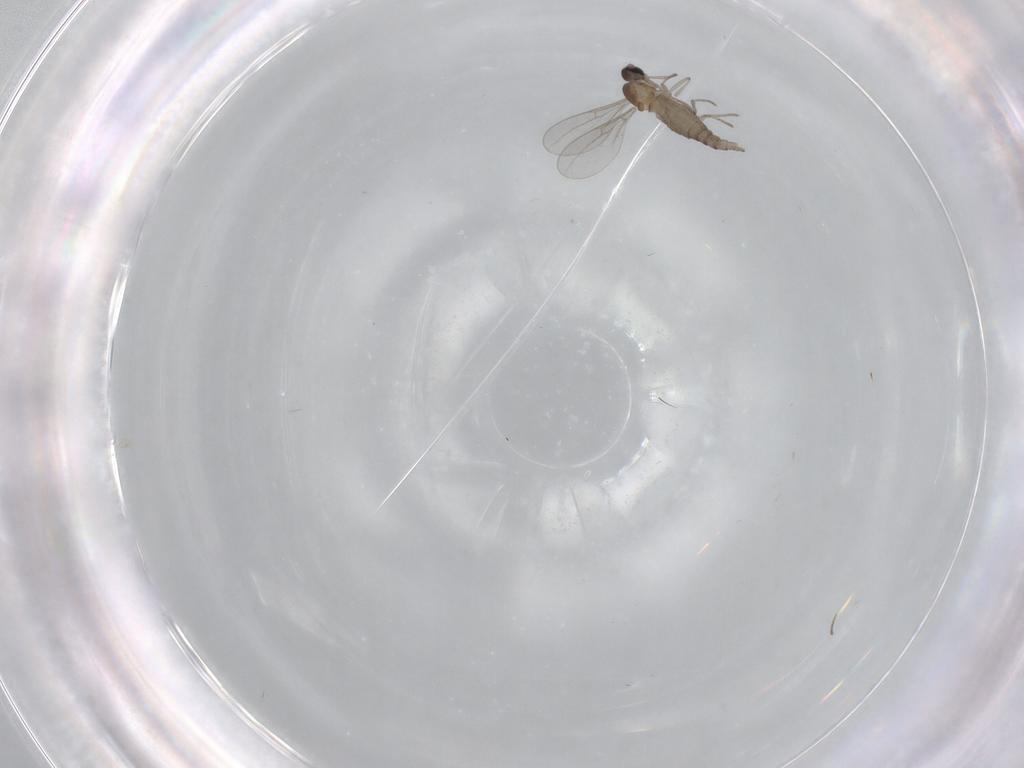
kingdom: Animalia
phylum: Arthropoda
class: Insecta
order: Diptera
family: Cecidomyiidae
